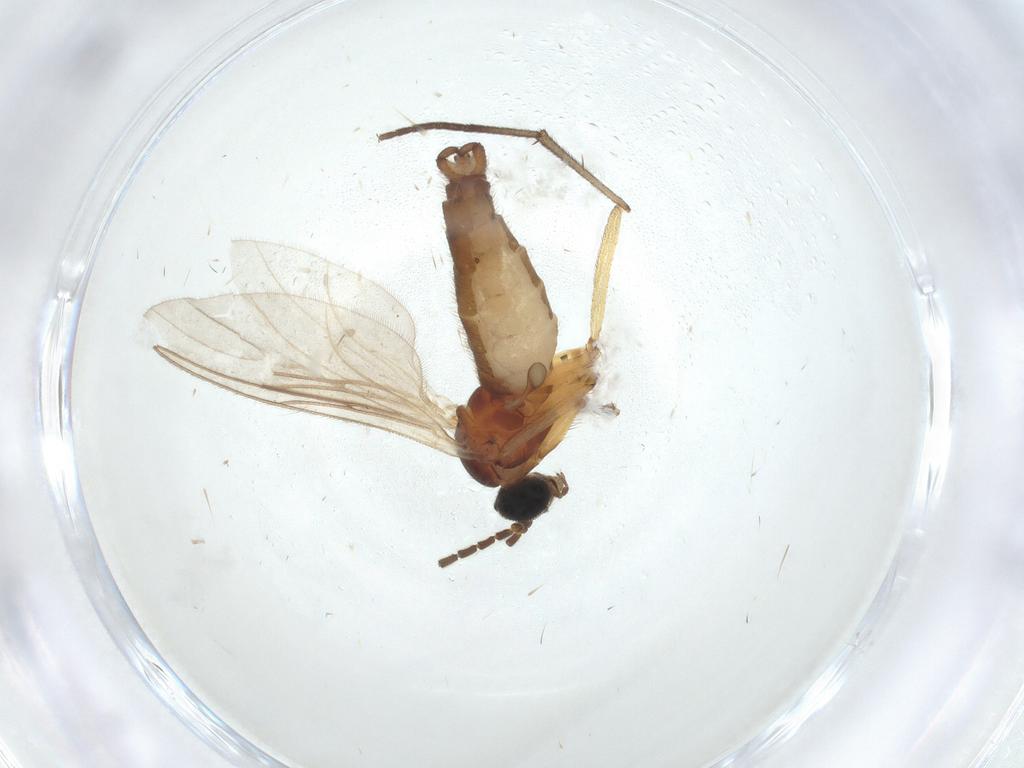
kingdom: Animalia
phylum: Arthropoda
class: Insecta
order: Diptera
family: Sciaridae
